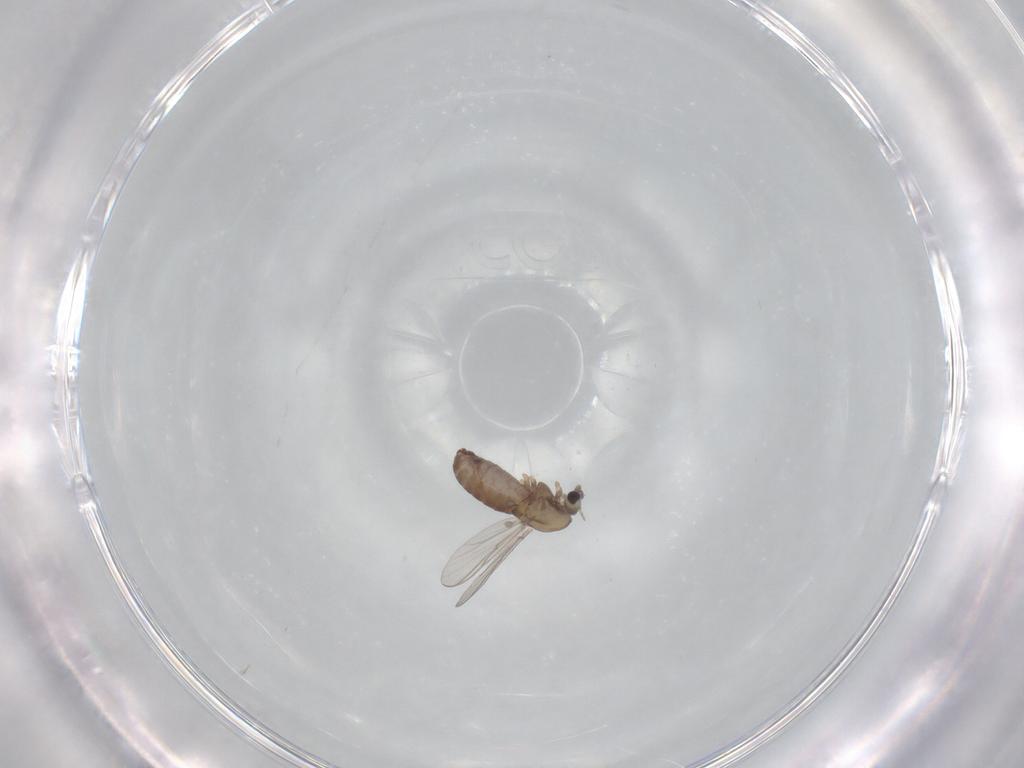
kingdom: Animalia
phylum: Arthropoda
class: Insecta
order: Diptera
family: Chironomidae
